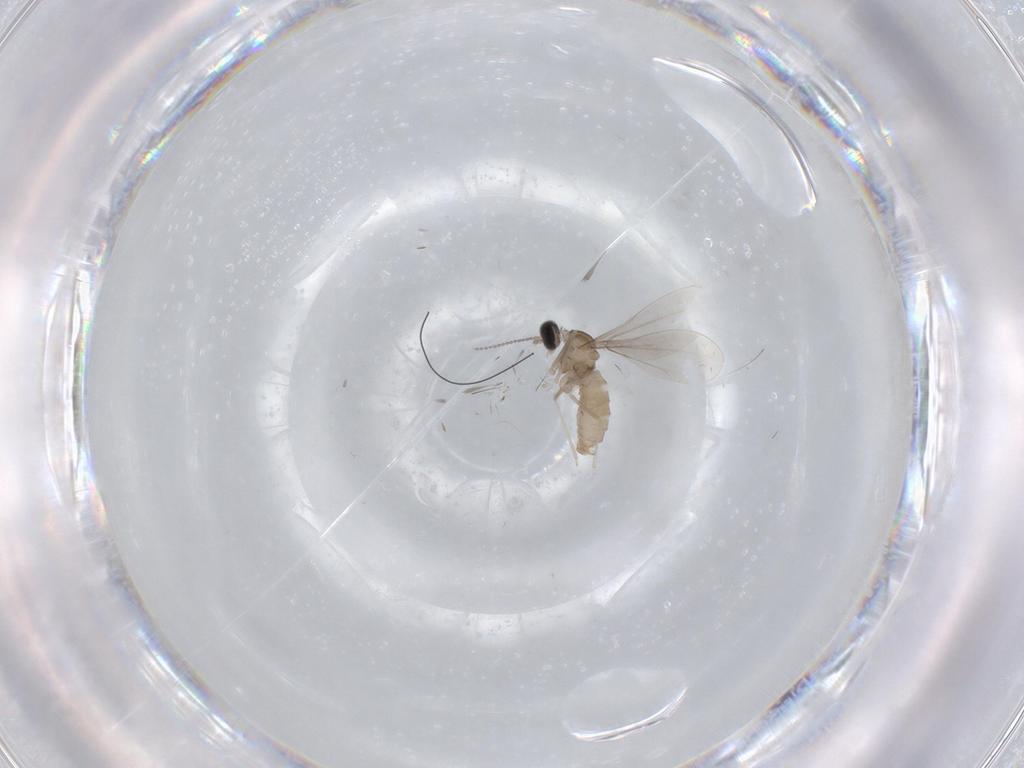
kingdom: Animalia
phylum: Arthropoda
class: Insecta
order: Diptera
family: Cecidomyiidae
